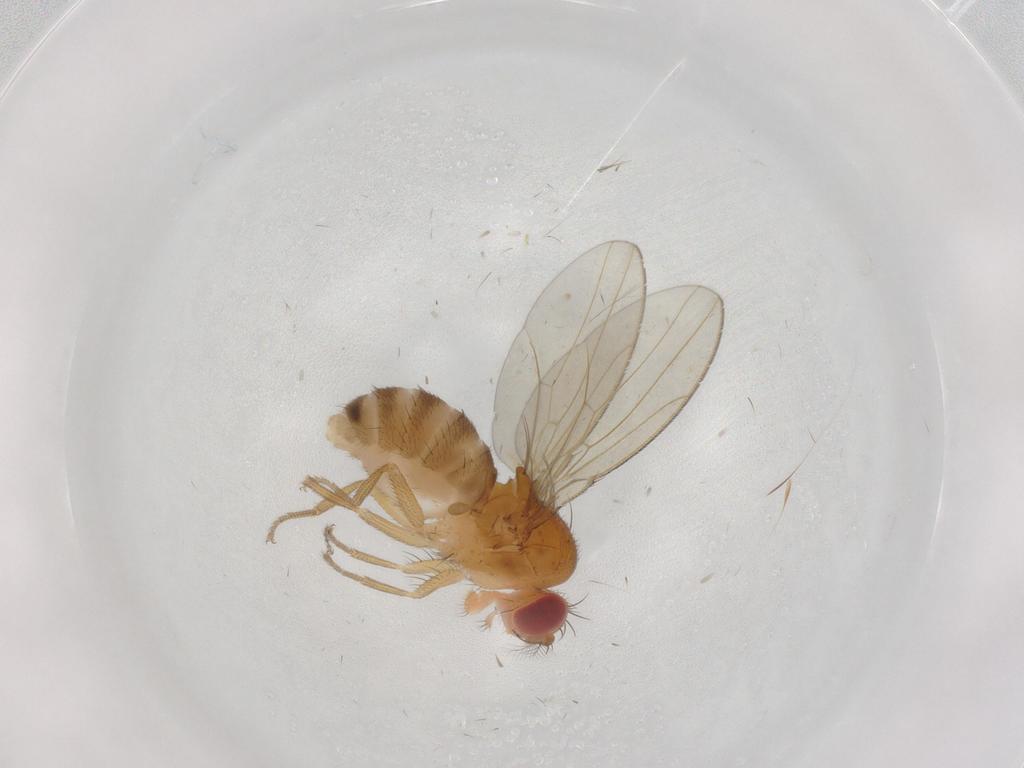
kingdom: Animalia
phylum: Arthropoda
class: Insecta
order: Diptera
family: Drosophilidae
